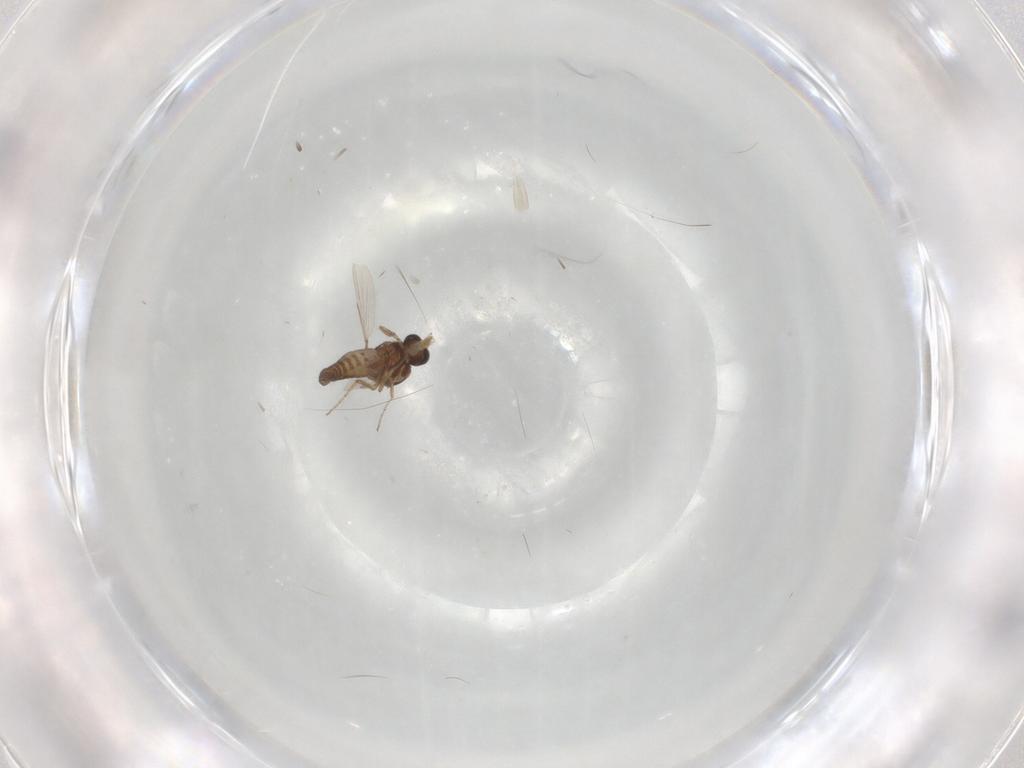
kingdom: Animalia
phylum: Arthropoda
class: Insecta
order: Diptera
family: Ceratopogonidae
